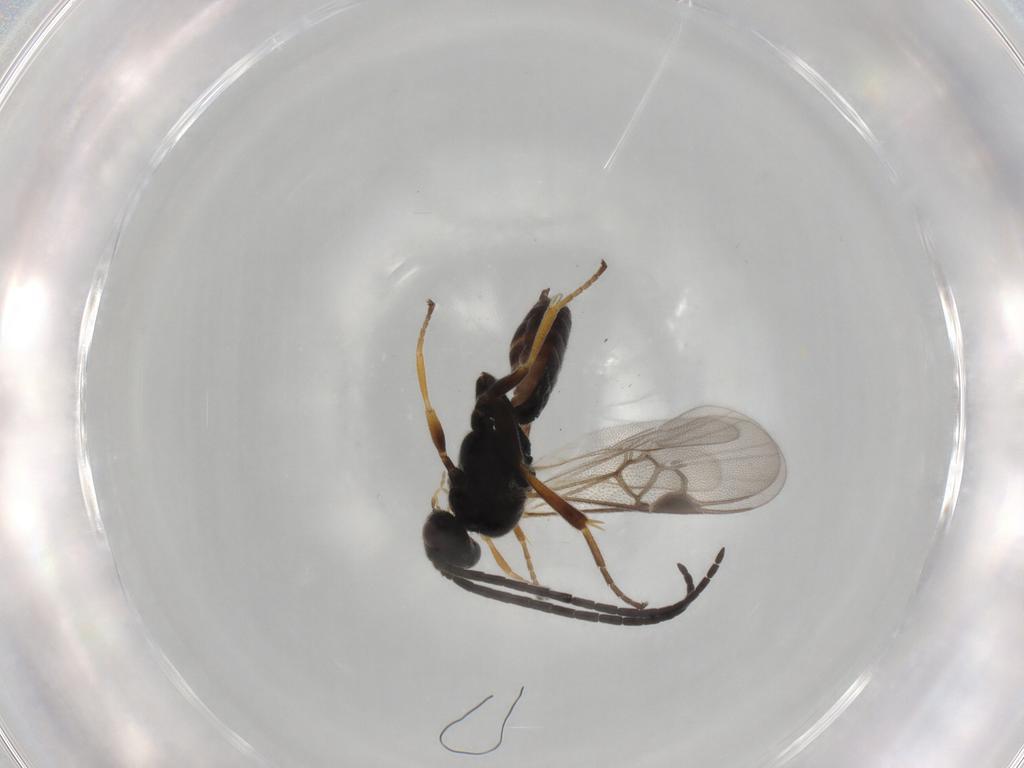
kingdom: Animalia
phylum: Arthropoda
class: Insecta
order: Hymenoptera
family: Braconidae
